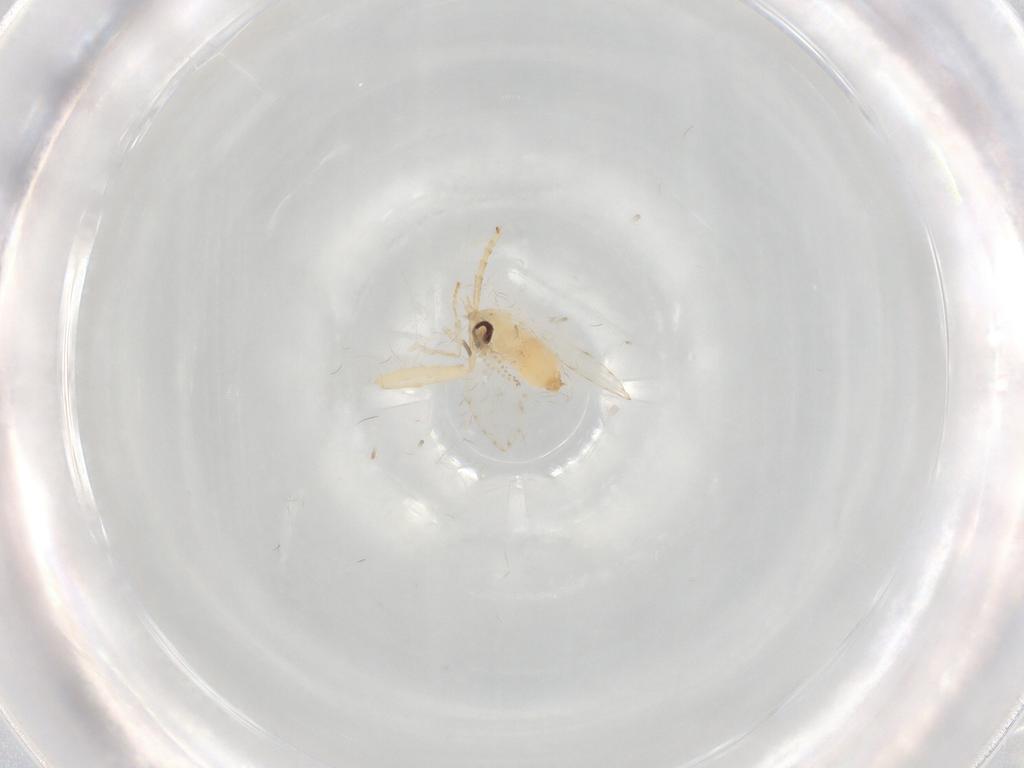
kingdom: Animalia
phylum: Arthropoda
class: Insecta
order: Diptera
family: Psychodidae
